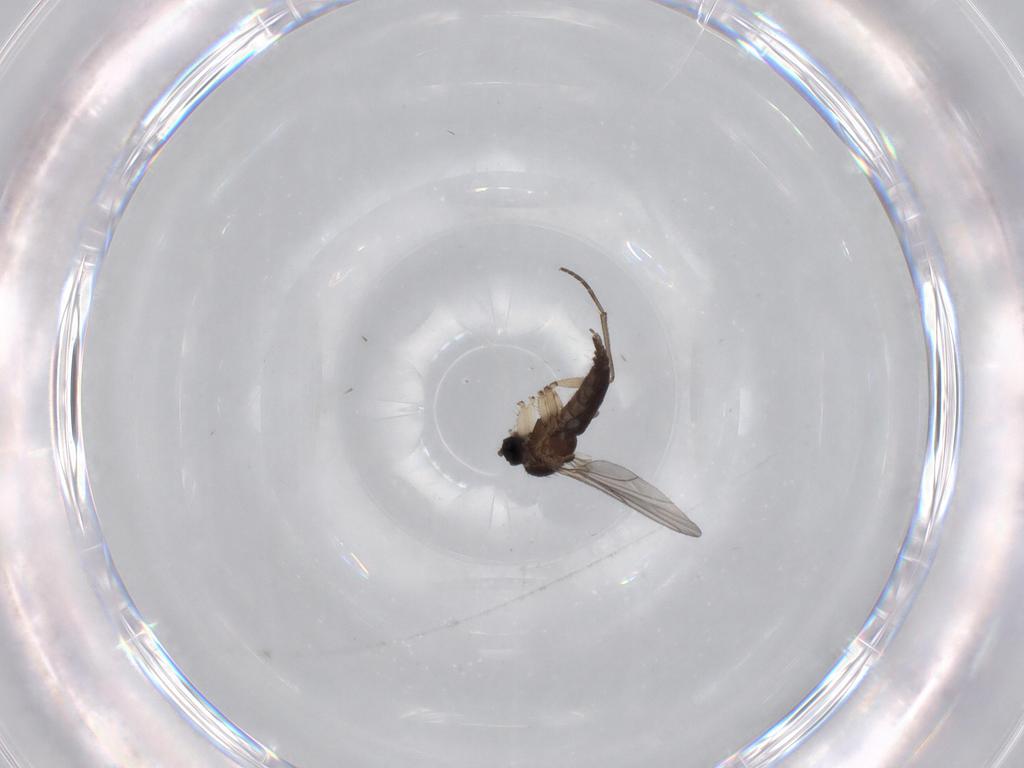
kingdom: Animalia
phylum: Arthropoda
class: Insecta
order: Diptera
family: Sciaridae
